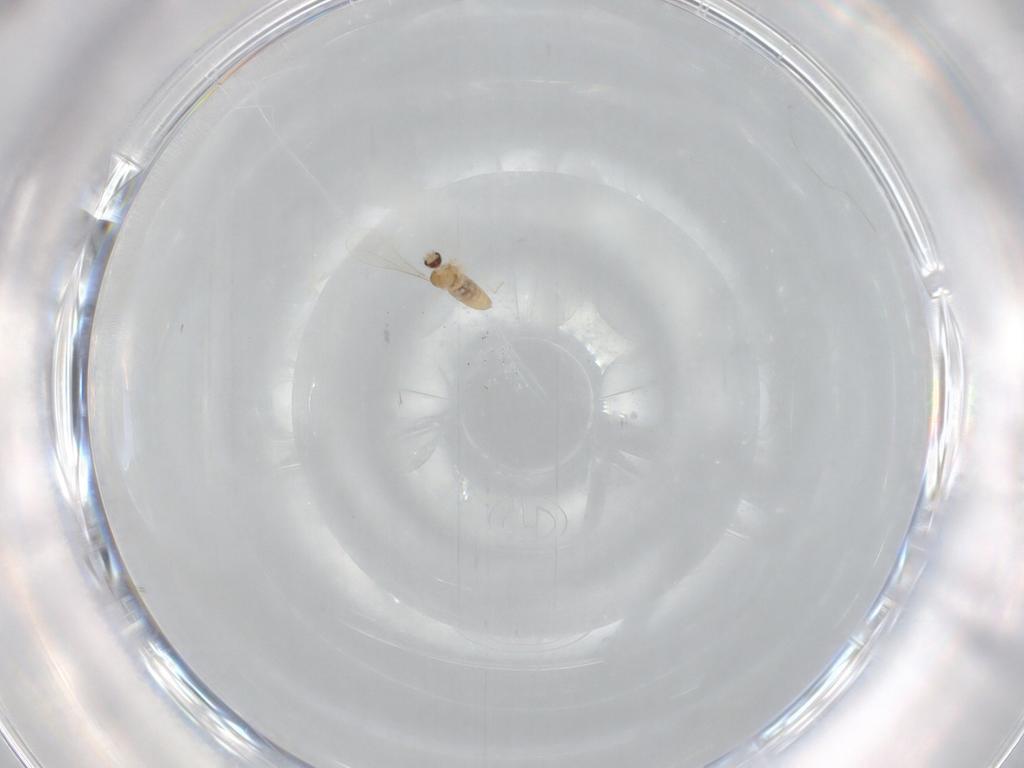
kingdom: Animalia
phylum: Arthropoda
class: Insecta
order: Diptera
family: Cecidomyiidae
